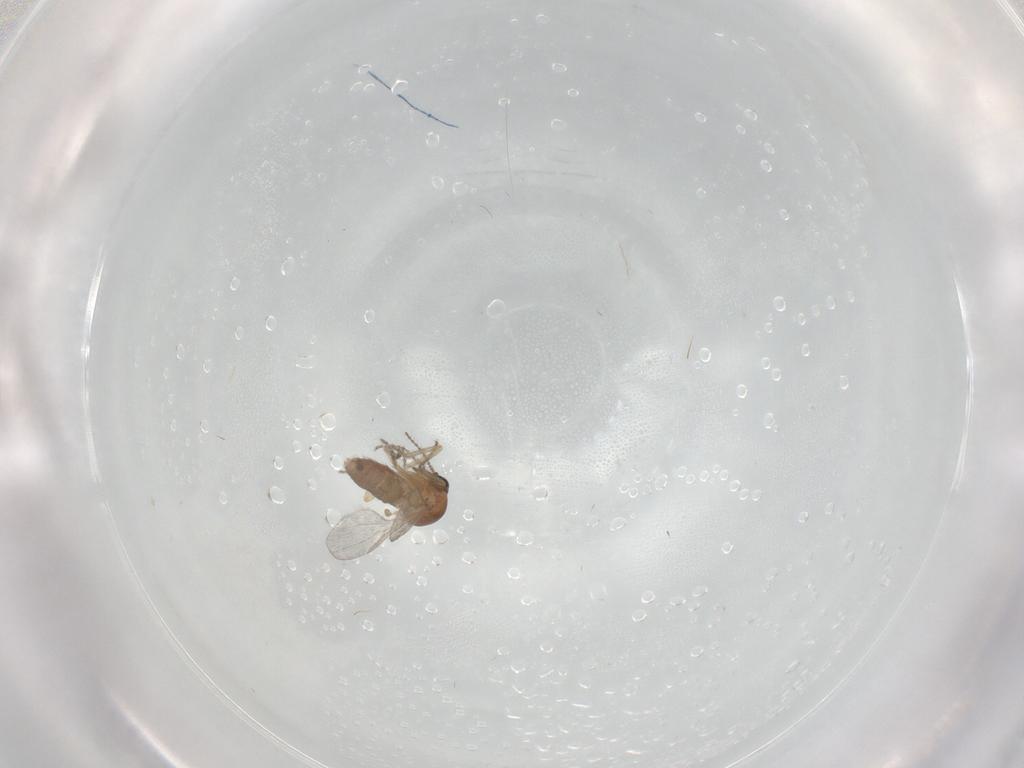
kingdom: Animalia
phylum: Arthropoda
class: Insecta
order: Diptera
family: Ceratopogonidae
